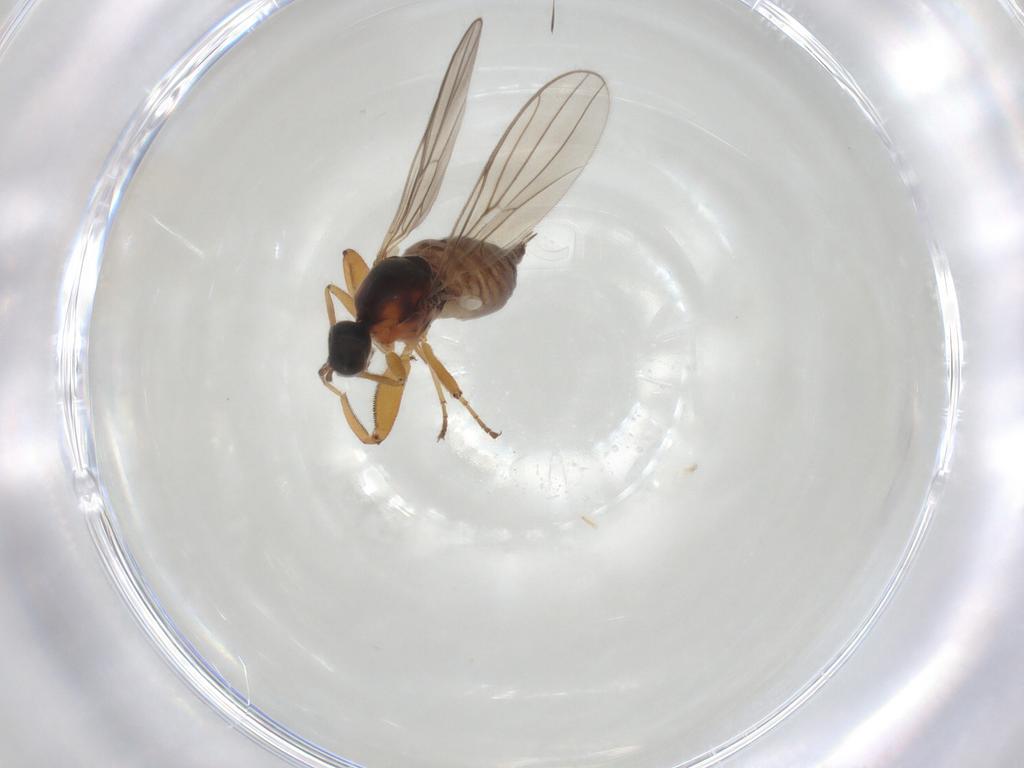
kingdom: Animalia
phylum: Arthropoda
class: Insecta
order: Diptera
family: Hybotidae
